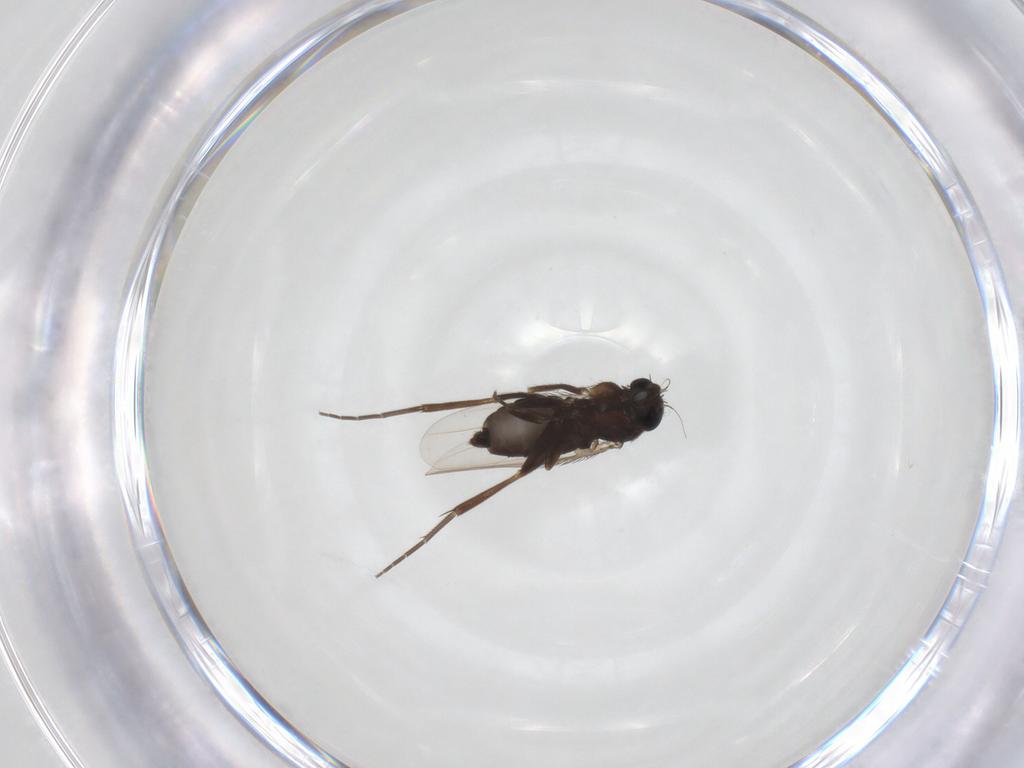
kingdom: Animalia
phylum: Arthropoda
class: Insecta
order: Diptera
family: Phoridae
